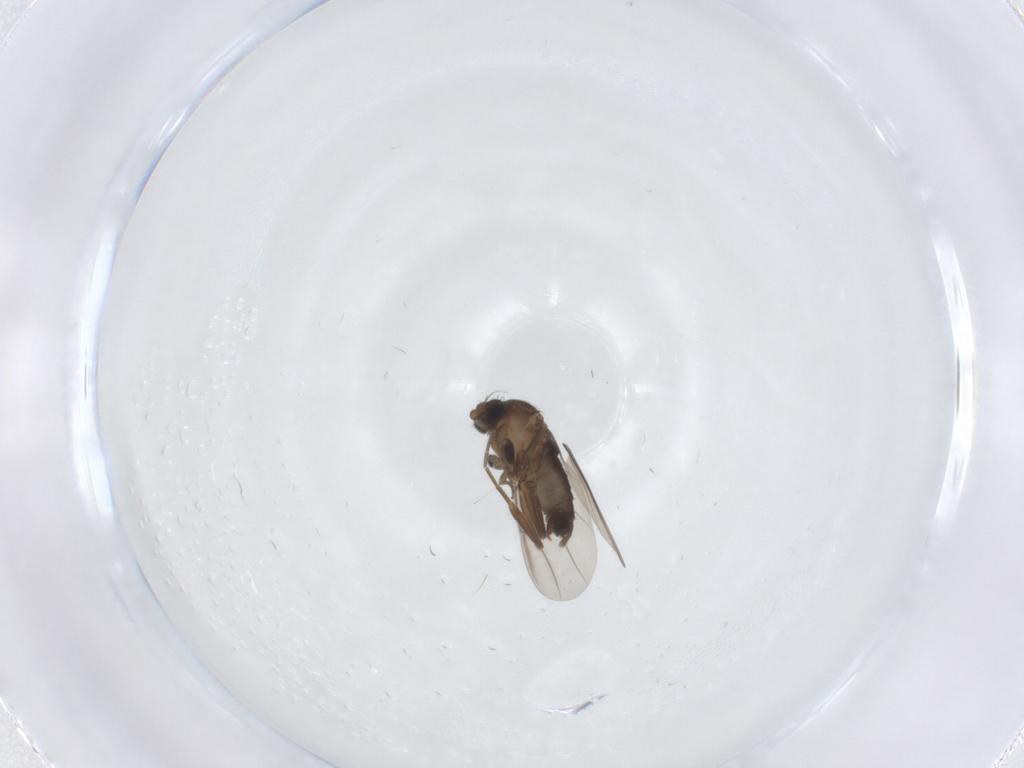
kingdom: Animalia
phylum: Arthropoda
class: Insecta
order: Diptera
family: Phoridae
